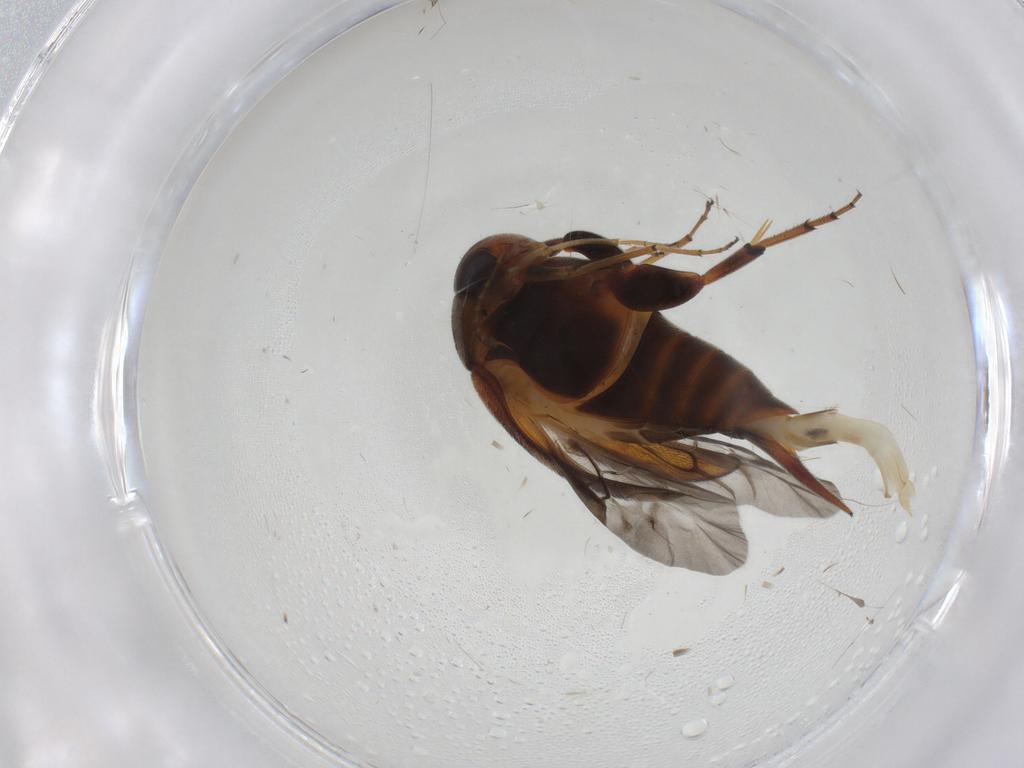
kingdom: Animalia
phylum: Arthropoda
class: Insecta
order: Coleoptera
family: Mordellidae
